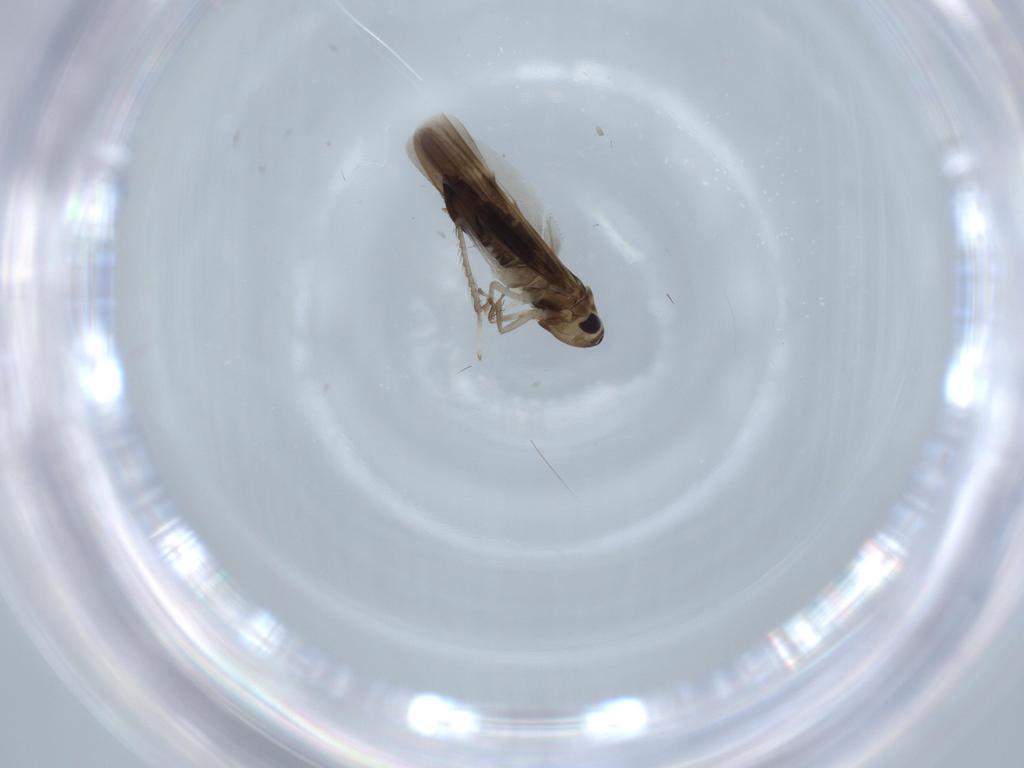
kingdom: Animalia
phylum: Arthropoda
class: Insecta
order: Hemiptera
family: Cicadellidae
